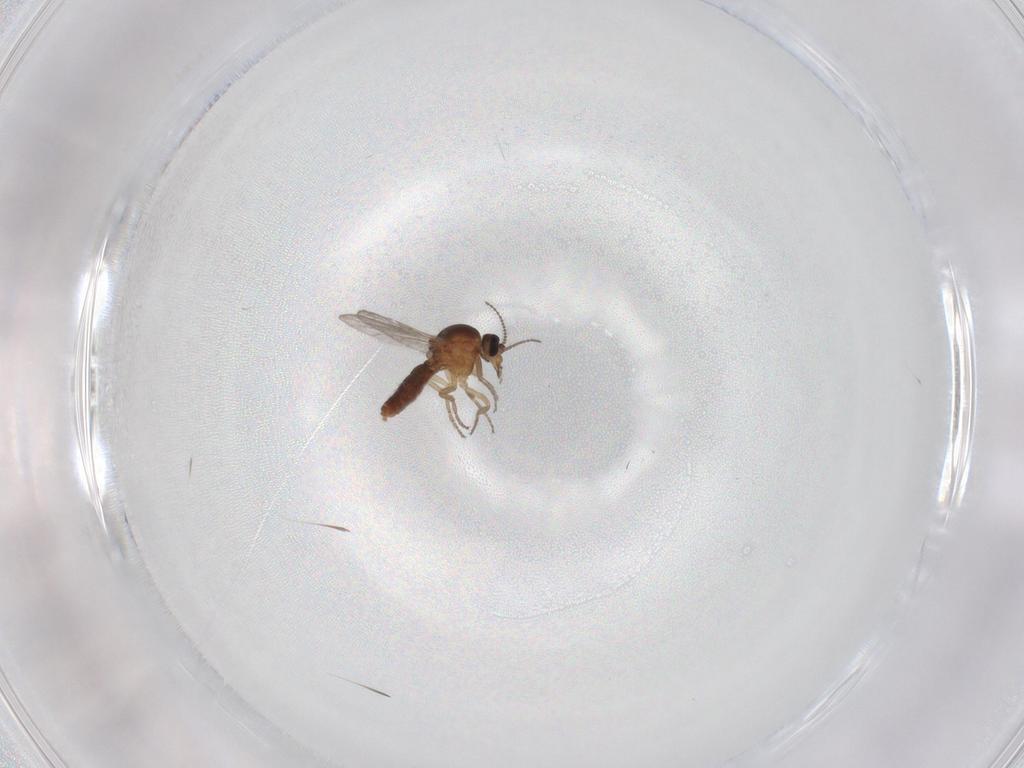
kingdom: Animalia
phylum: Arthropoda
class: Insecta
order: Diptera
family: Ceratopogonidae
